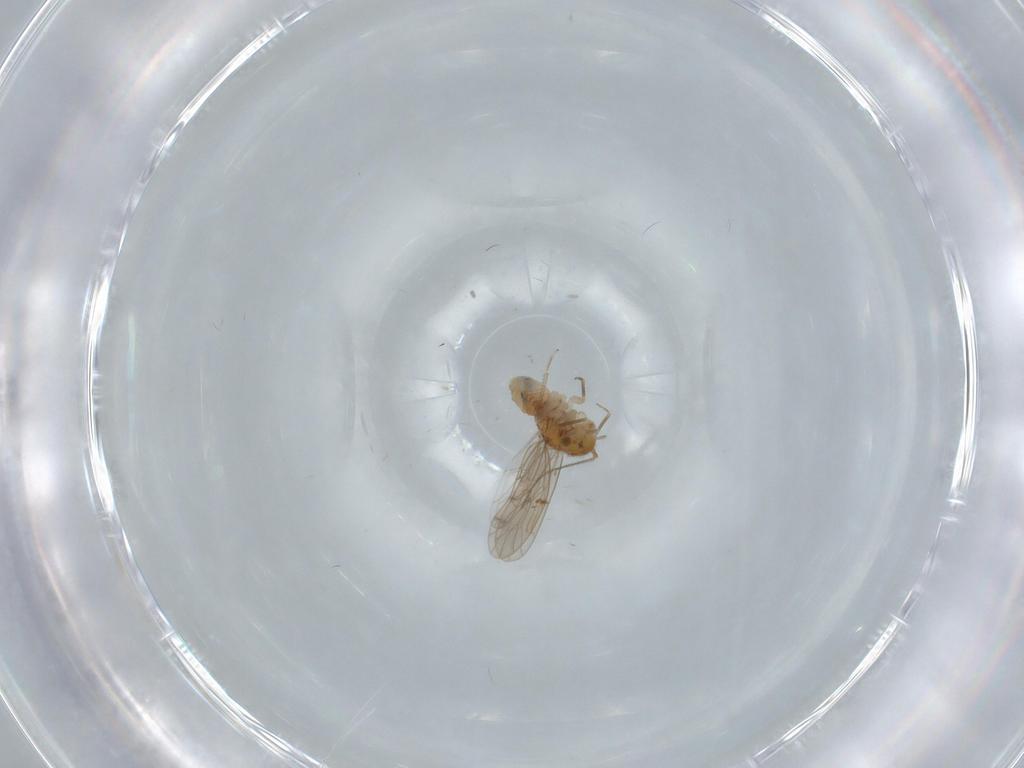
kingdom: Animalia
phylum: Arthropoda
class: Insecta
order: Psocodea
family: Ectopsocidae
